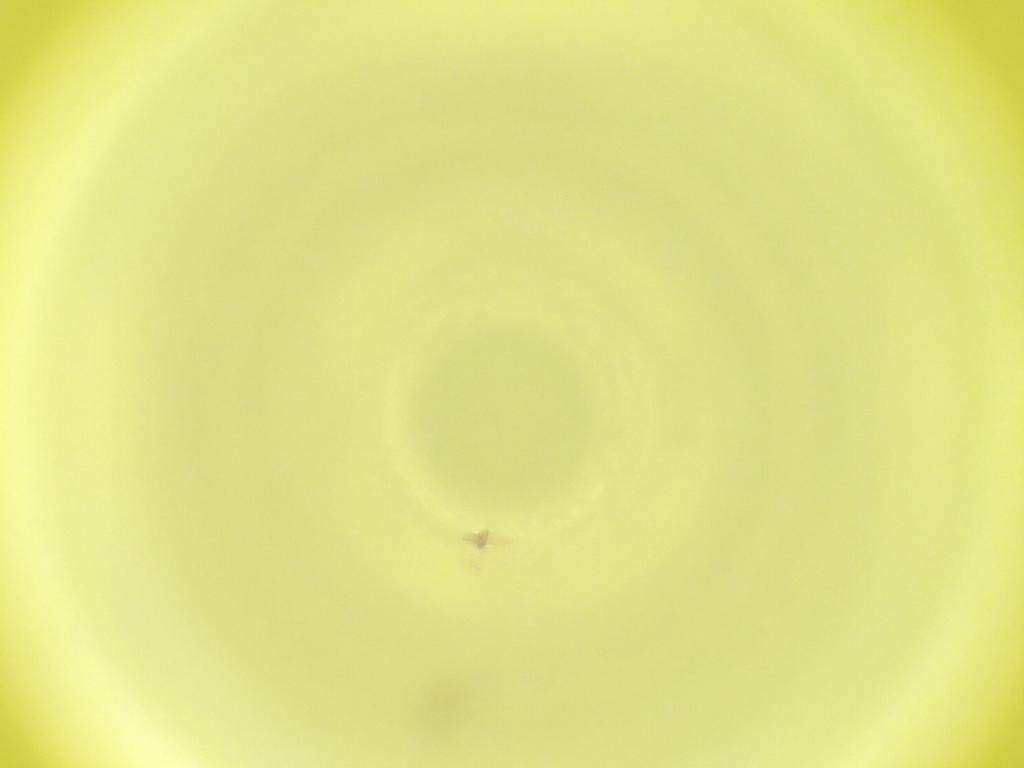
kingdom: Animalia
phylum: Arthropoda
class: Insecta
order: Diptera
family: Cecidomyiidae
